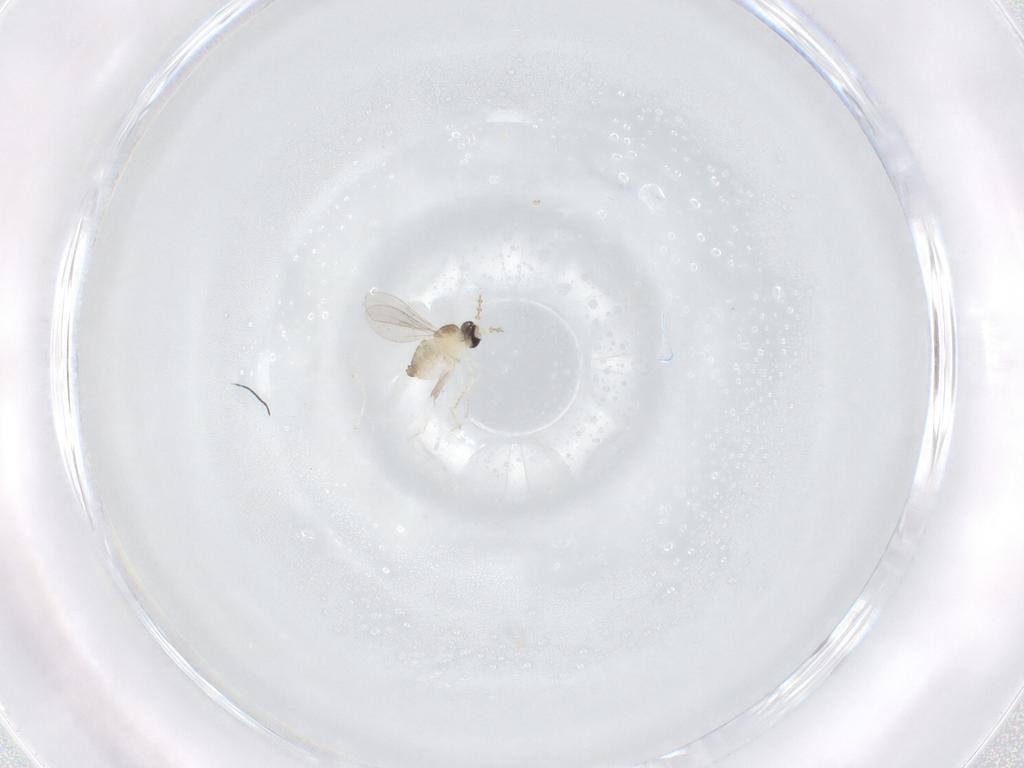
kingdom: Animalia
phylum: Arthropoda
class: Insecta
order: Diptera
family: Cecidomyiidae
